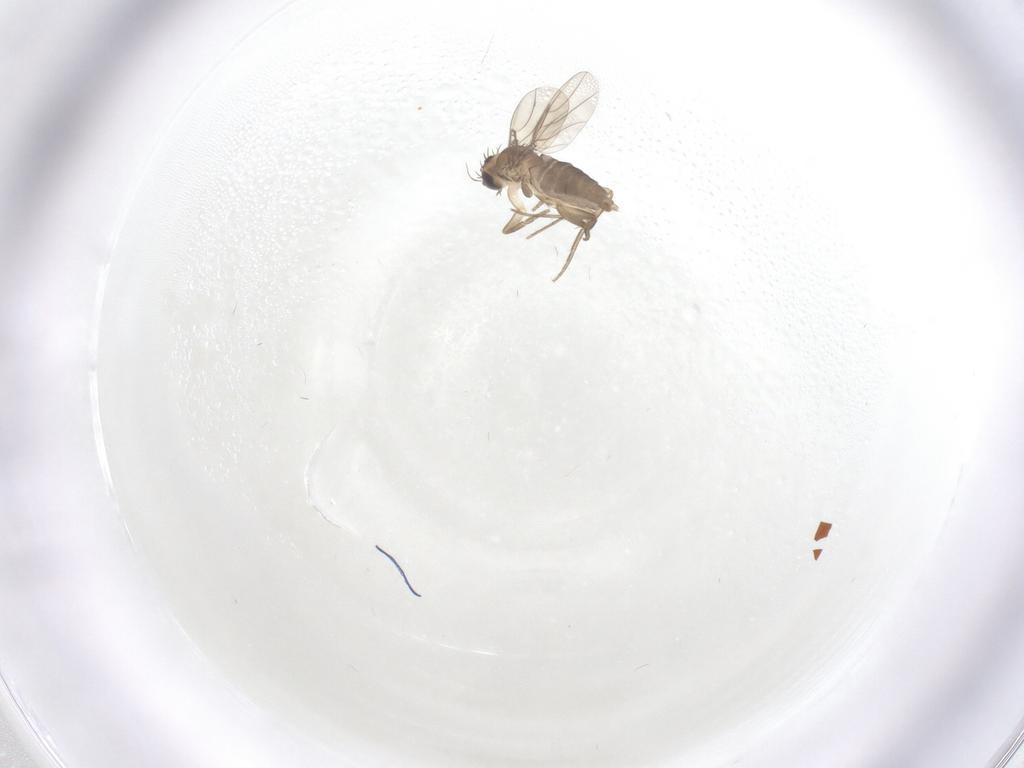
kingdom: Animalia
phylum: Arthropoda
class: Insecta
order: Diptera
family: Phoridae
